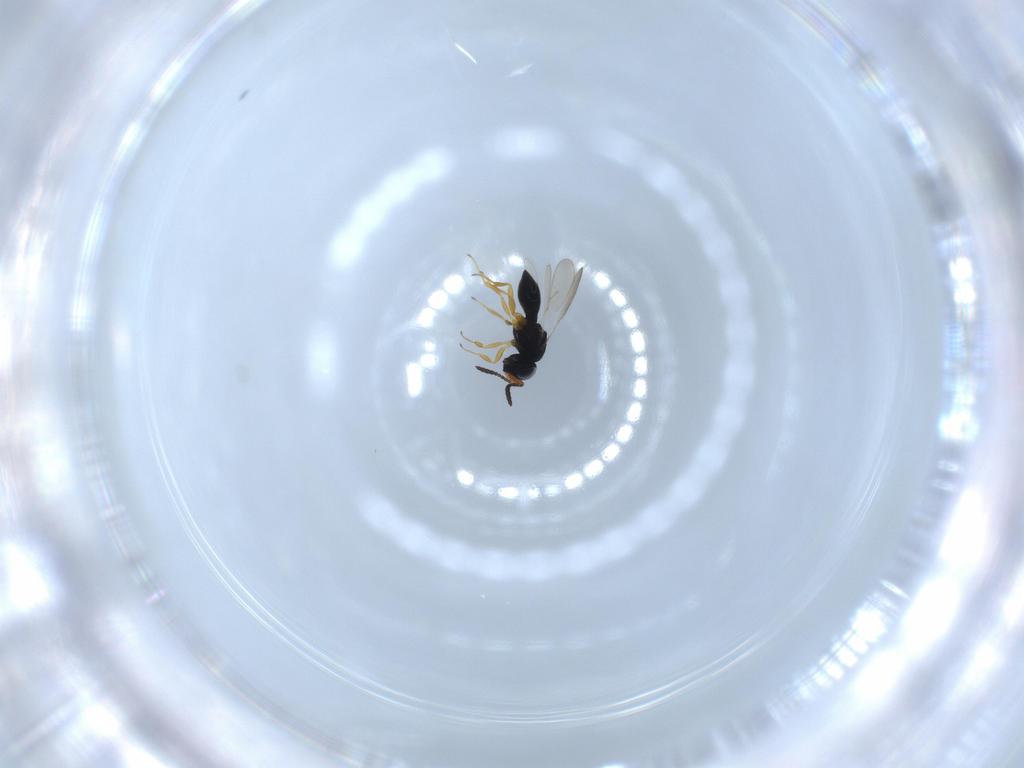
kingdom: Animalia
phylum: Arthropoda
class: Insecta
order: Hymenoptera
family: Scelionidae
